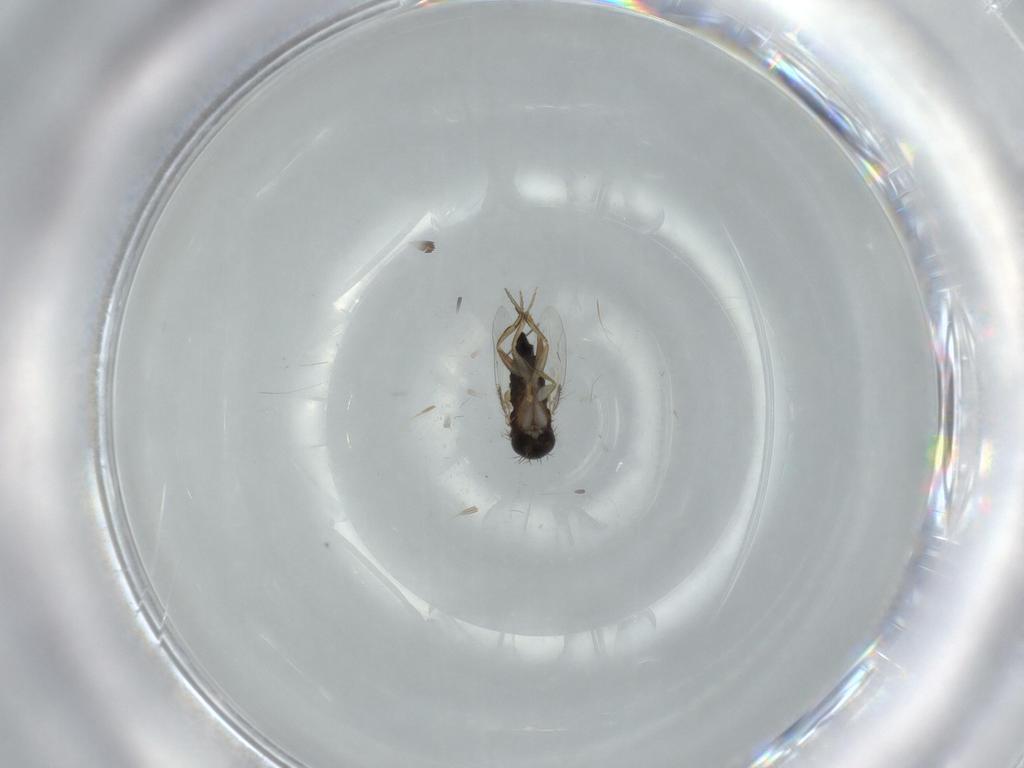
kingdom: Animalia
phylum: Arthropoda
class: Insecta
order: Diptera
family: Phoridae
